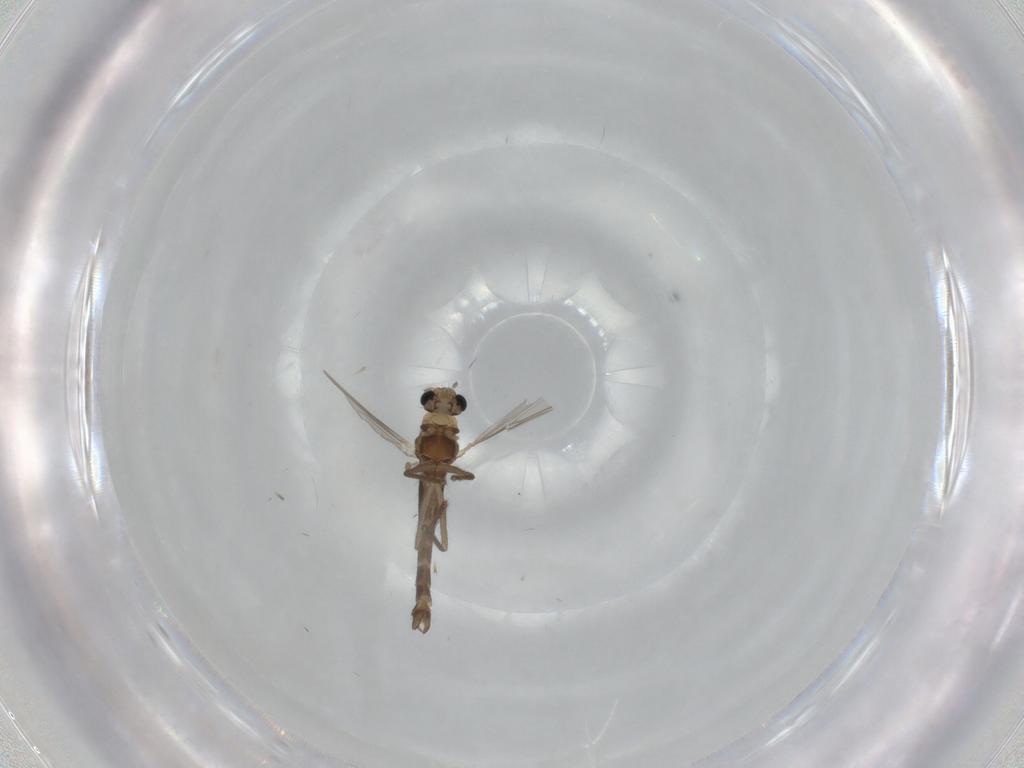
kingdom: Animalia
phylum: Arthropoda
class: Insecta
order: Diptera
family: Chironomidae
